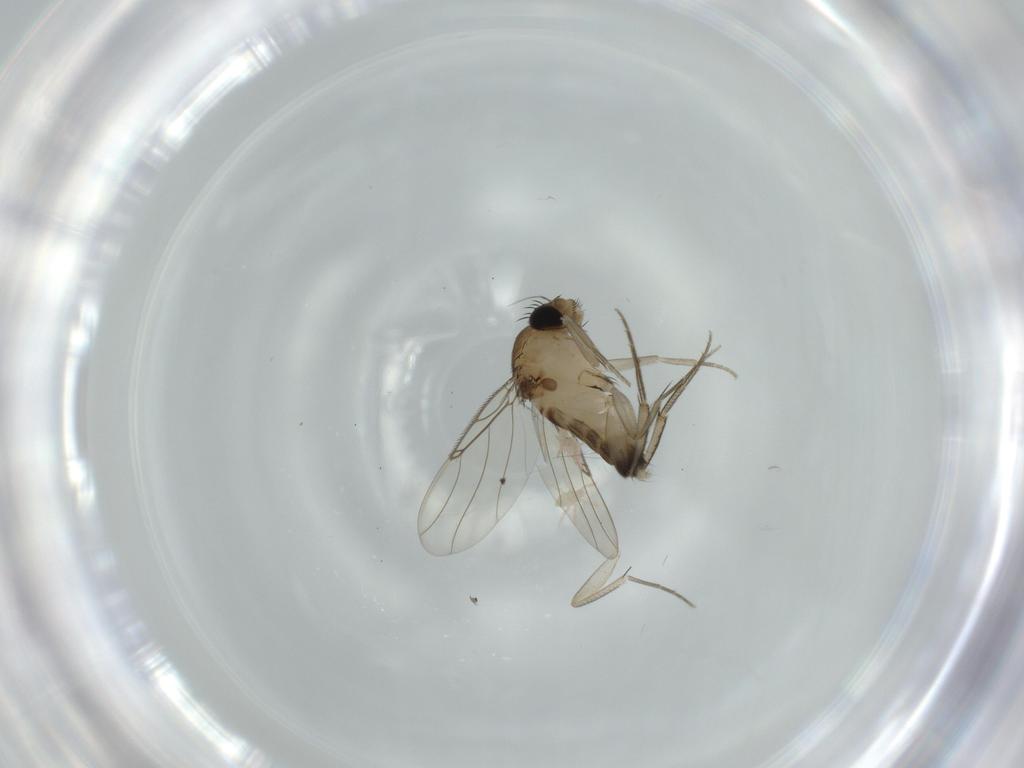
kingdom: Animalia
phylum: Arthropoda
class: Insecta
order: Diptera
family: Phoridae
